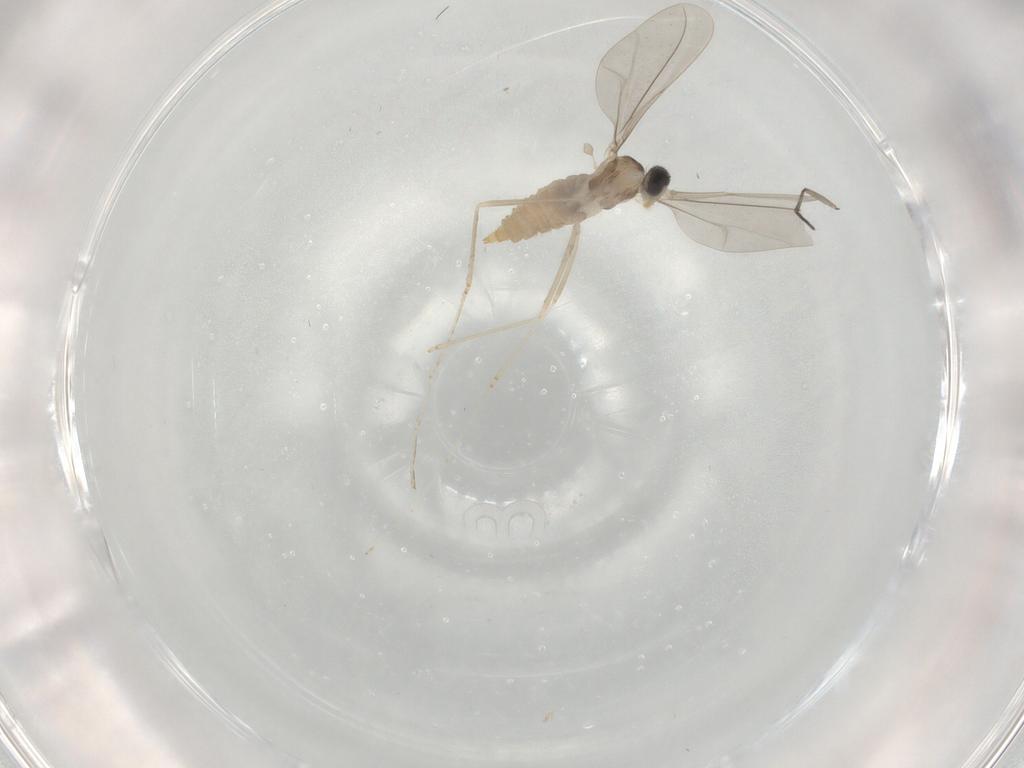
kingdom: Animalia
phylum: Arthropoda
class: Insecta
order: Diptera
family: Cecidomyiidae
